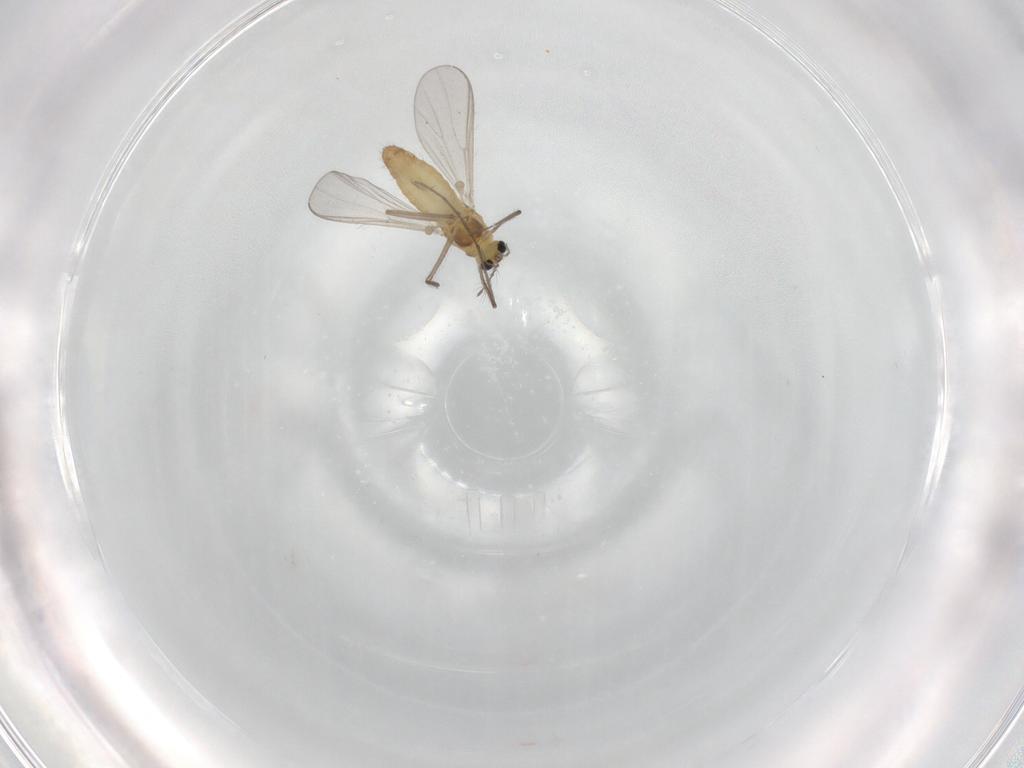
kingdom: Animalia
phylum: Arthropoda
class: Insecta
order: Diptera
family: Chironomidae
